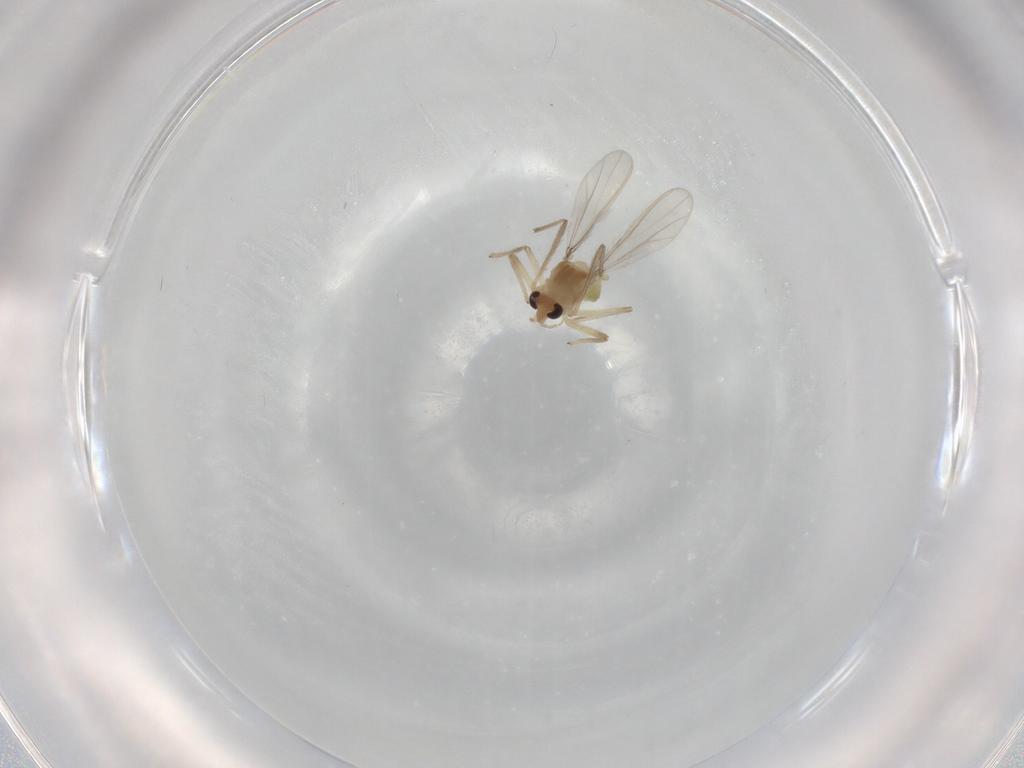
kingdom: Animalia
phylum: Arthropoda
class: Insecta
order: Diptera
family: Chironomidae
